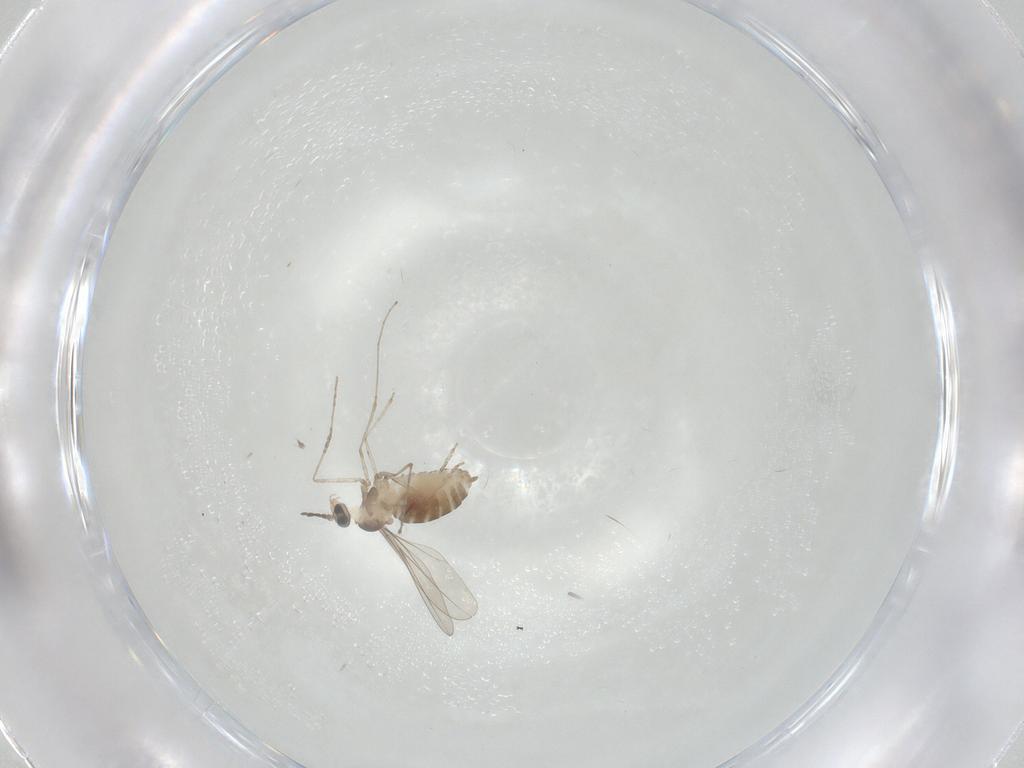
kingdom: Animalia
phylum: Arthropoda
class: Insecta
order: Diptera
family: Cecidomyiidae
